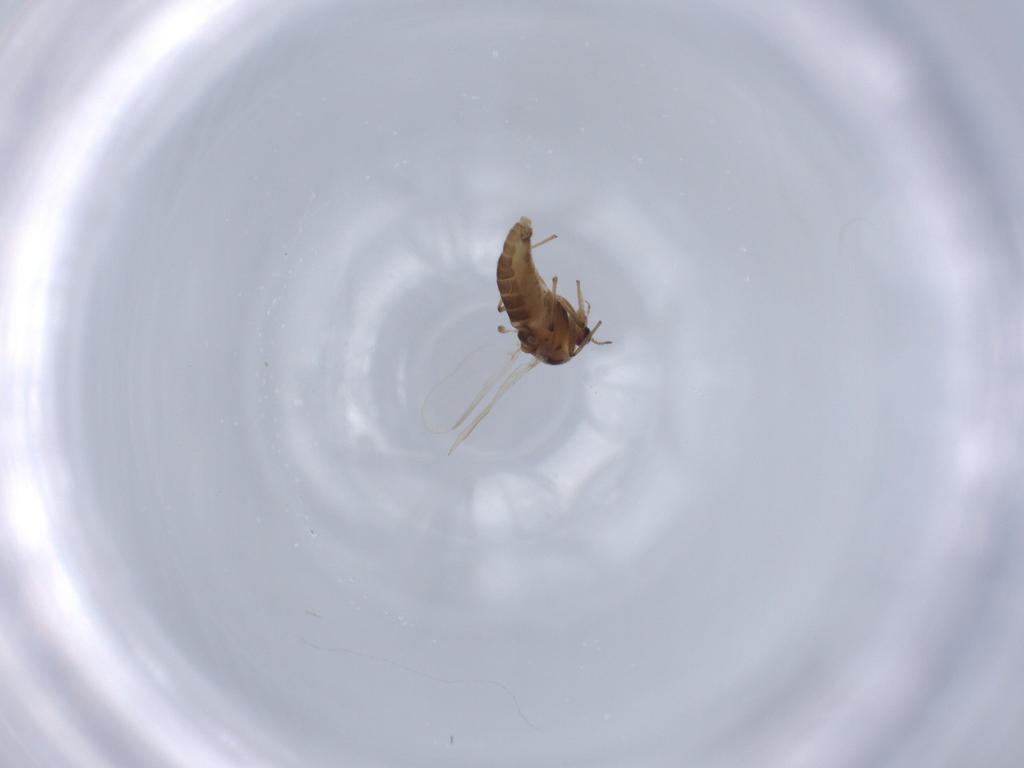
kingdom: Animalia
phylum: Arthropoda
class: Insecta
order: Diptera
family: Chironomidae
